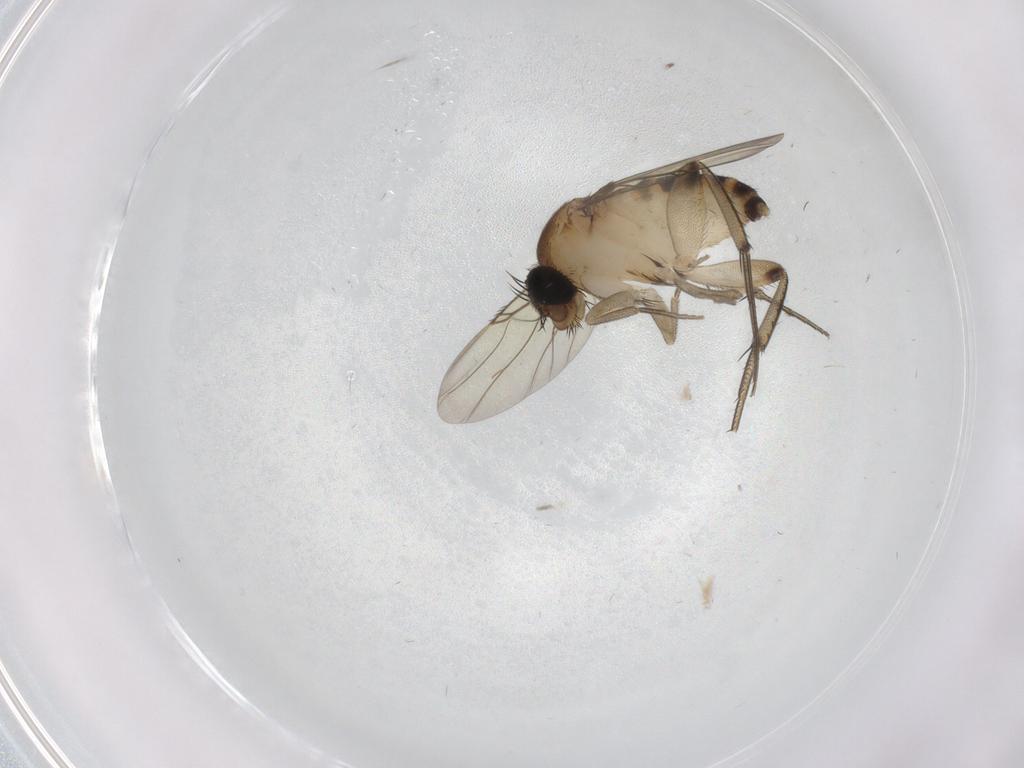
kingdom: Animalia
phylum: Arthropoda
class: Insecta
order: Diptera
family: Phoridae
